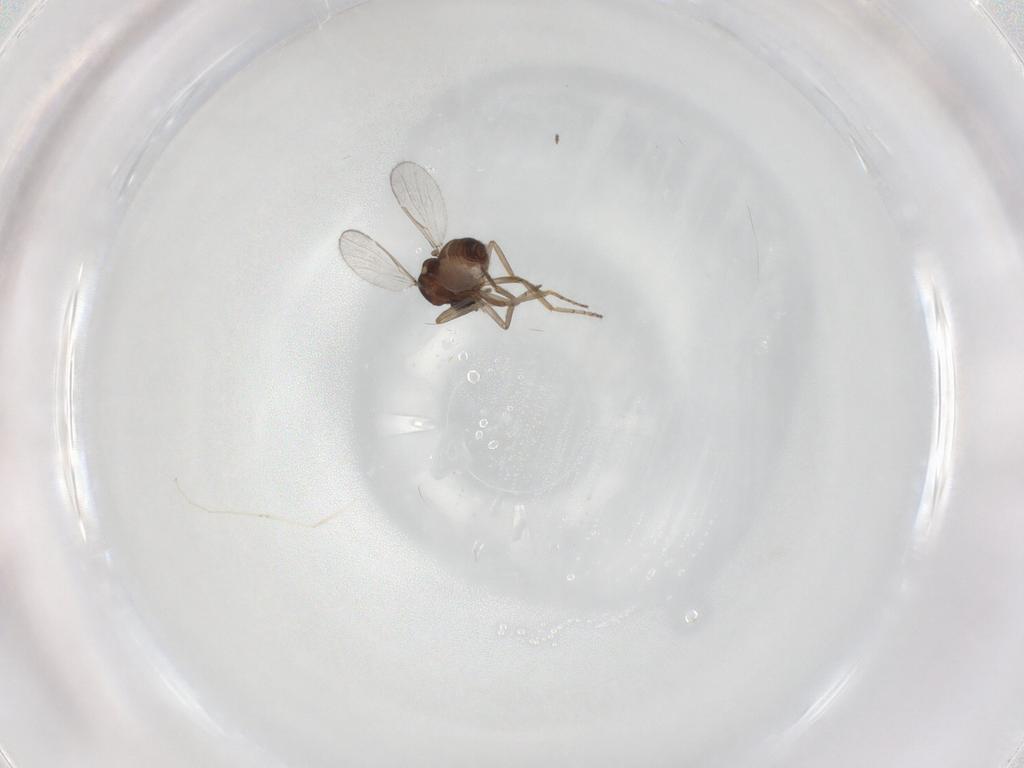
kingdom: Animalia
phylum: Arthropoda
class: Insecta
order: Diptera
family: Ceratopogonidae
